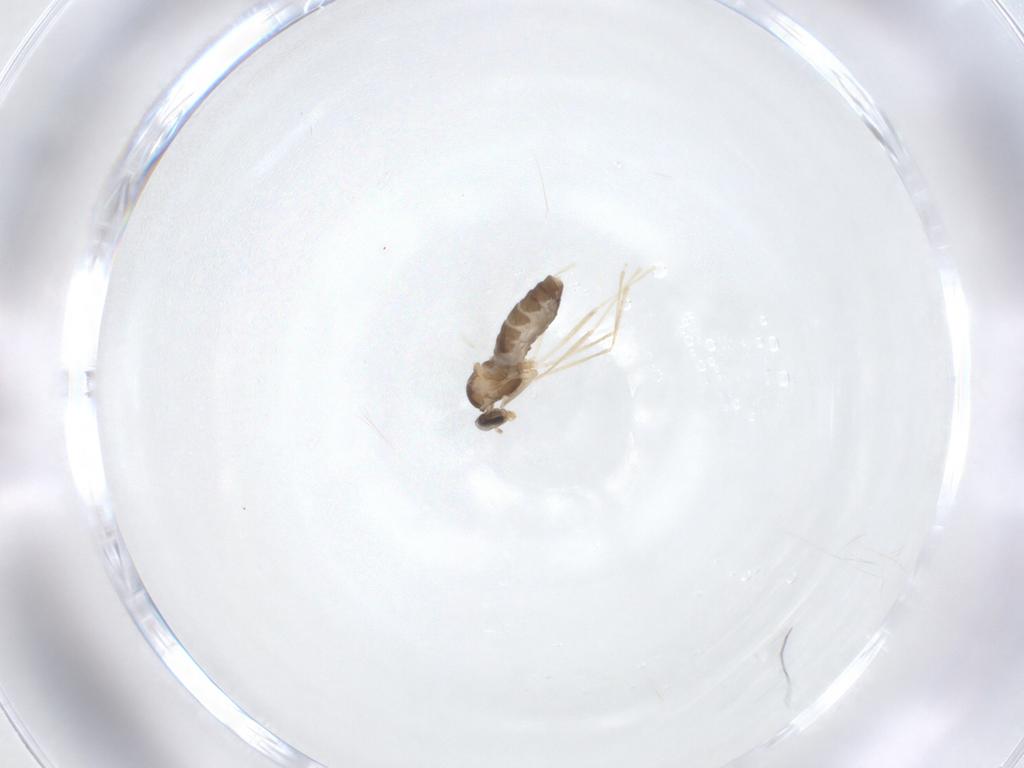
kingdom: Animalia
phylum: Arthropoda
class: Insecta
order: Diptera
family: Cecidomyiidae
